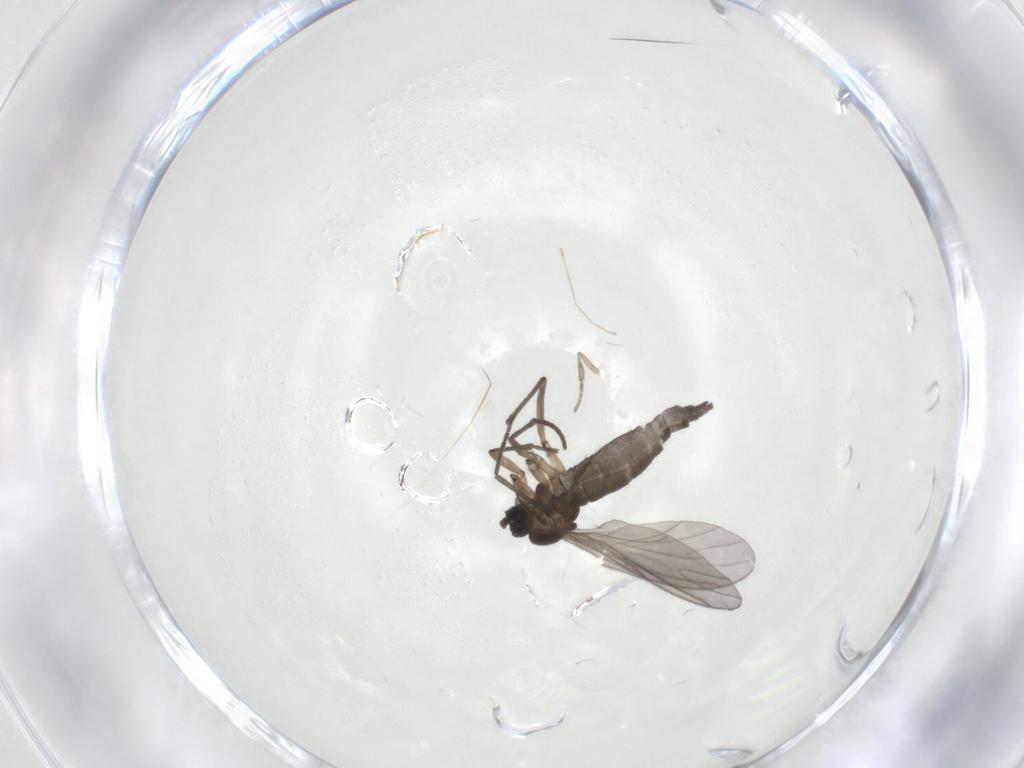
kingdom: Animalia
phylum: Arthropoda
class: Insecta
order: Diptera
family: Psychodidae
